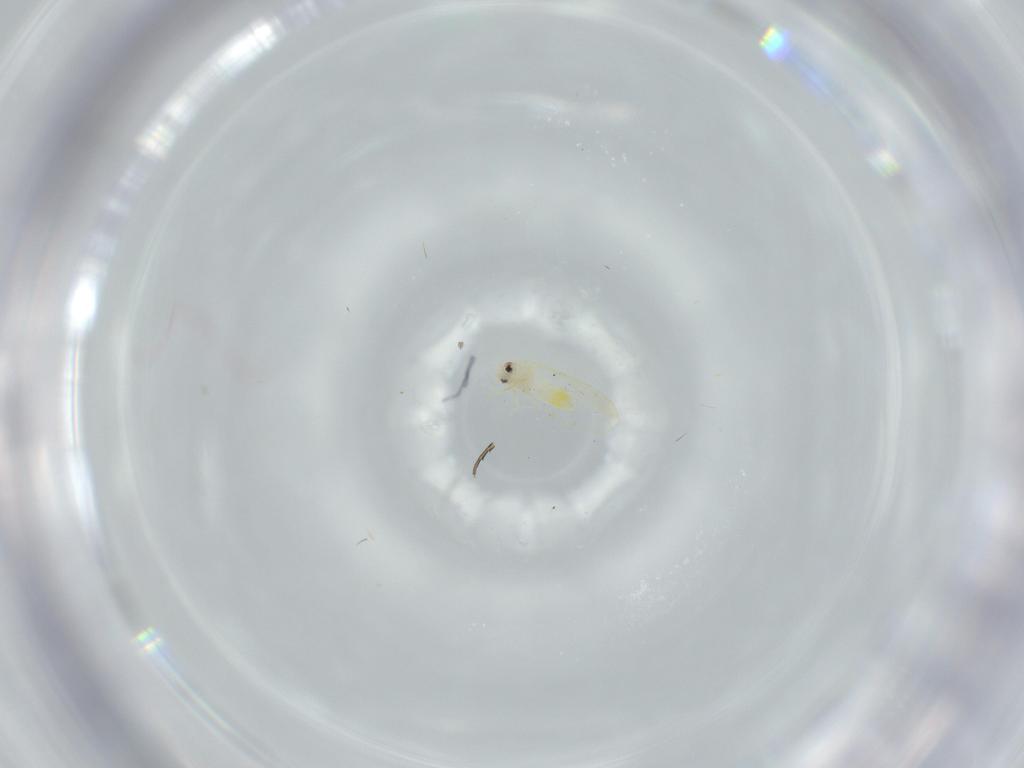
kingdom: Animalia
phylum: Arthropoda
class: Insecta
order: Hemiptera
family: Aleyrodidae
